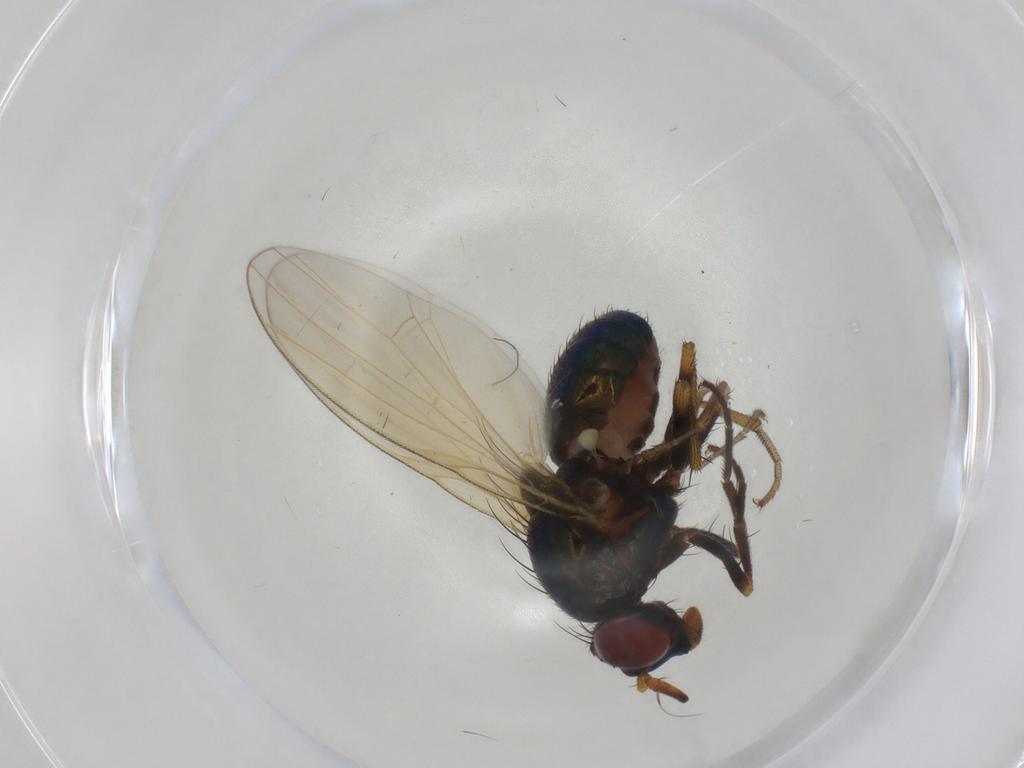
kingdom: Animalia
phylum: Arthropoda
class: Insecta
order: Diptera
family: Lauxaniidae
